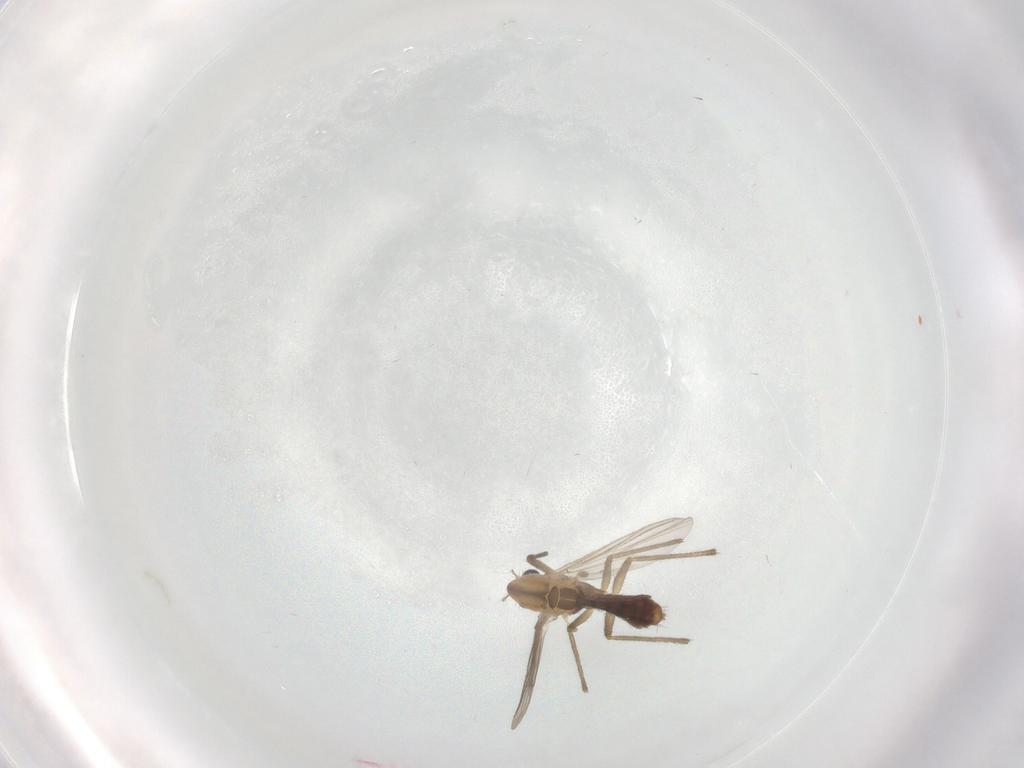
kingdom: Animalia
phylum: Arthropoda
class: Insecta
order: Diptera
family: Chironomidae
